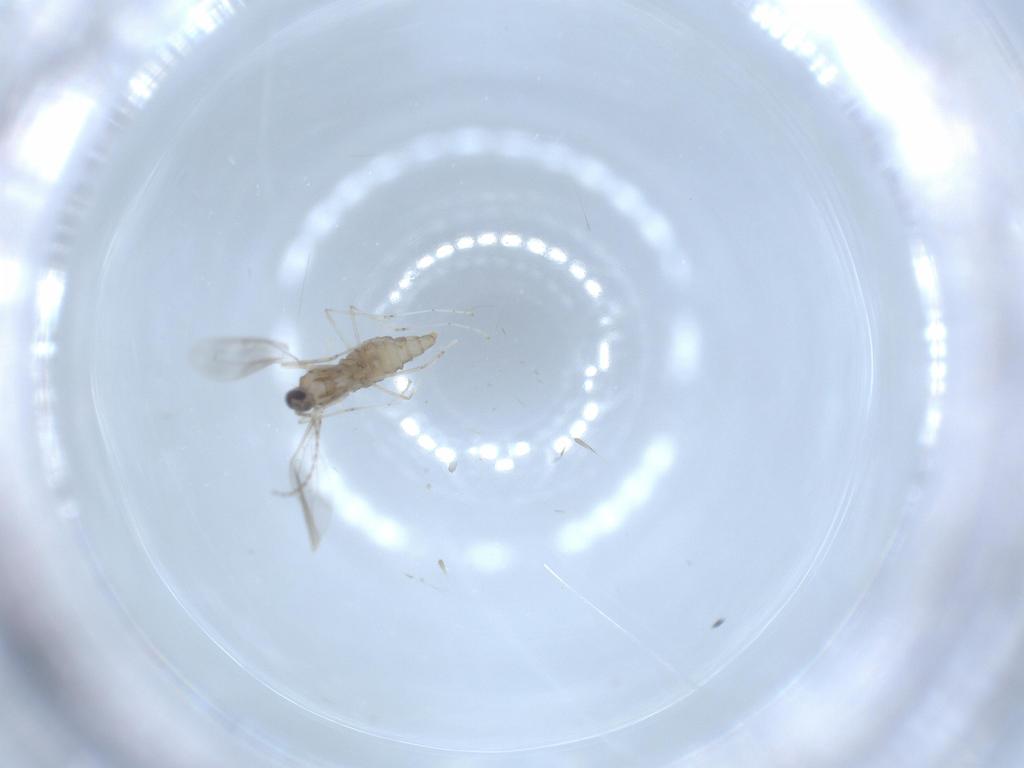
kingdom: Animalia
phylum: Arthropoda
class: Insecta
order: Diptera
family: Cecidomyiidae
